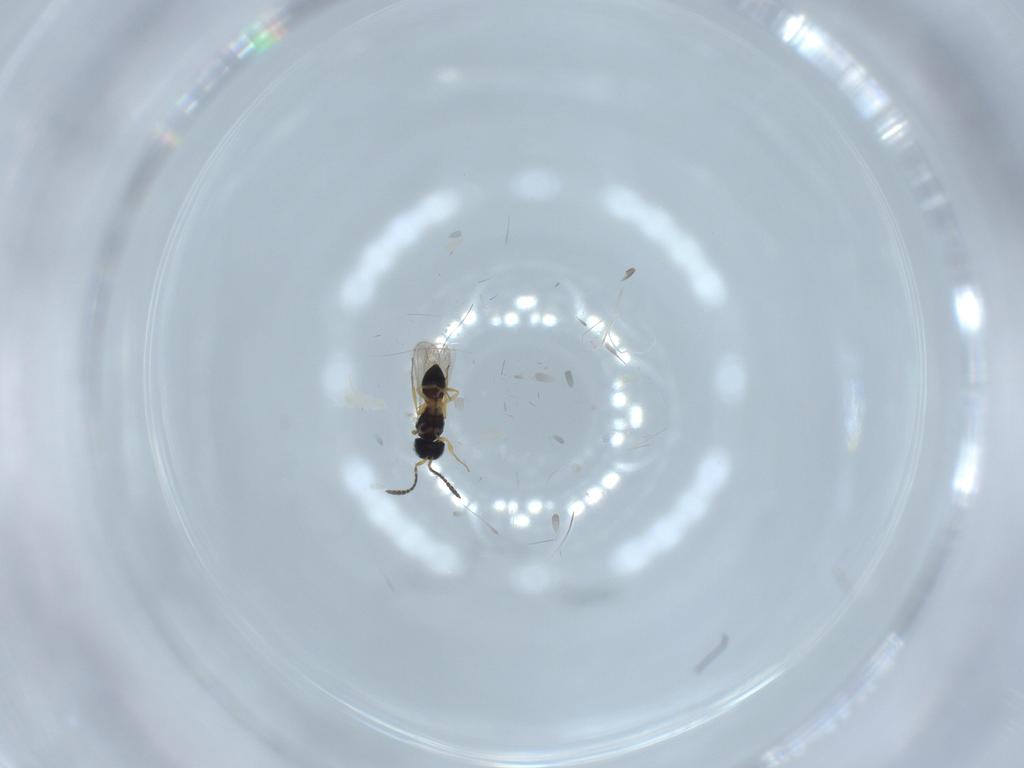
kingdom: Animalia
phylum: Arthropoda
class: Insecta
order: Hymenoptera
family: Scelionidae
